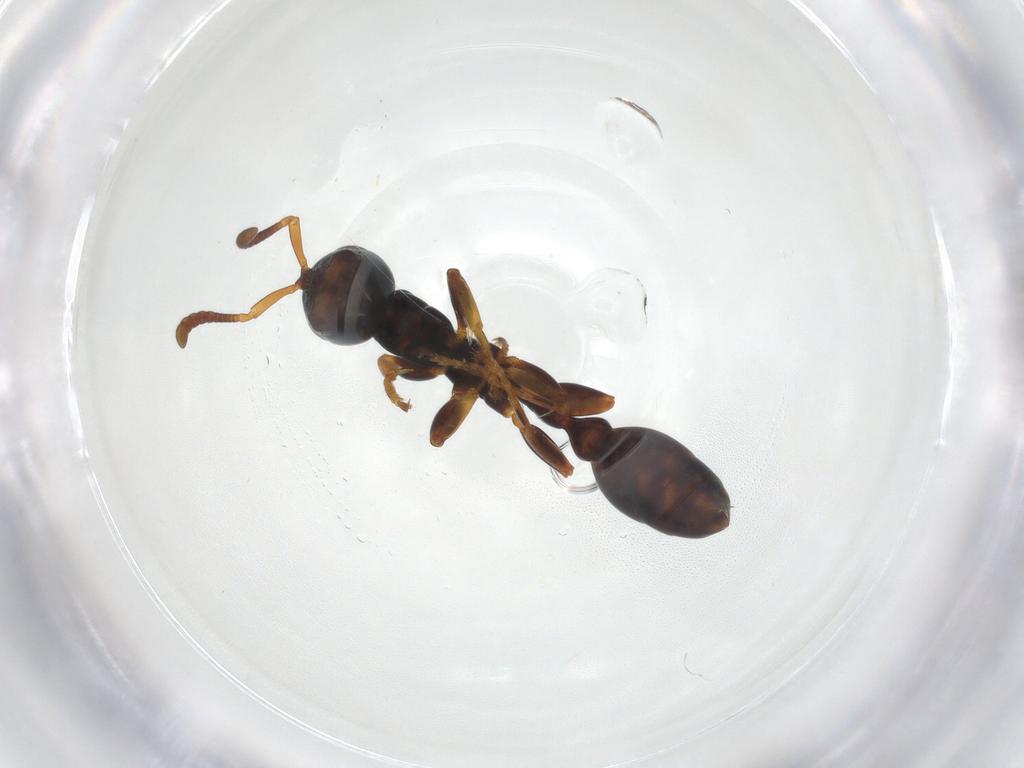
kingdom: Animalia
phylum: Arthropoda
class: Insecta
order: Hymenoptera
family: Formicidae
